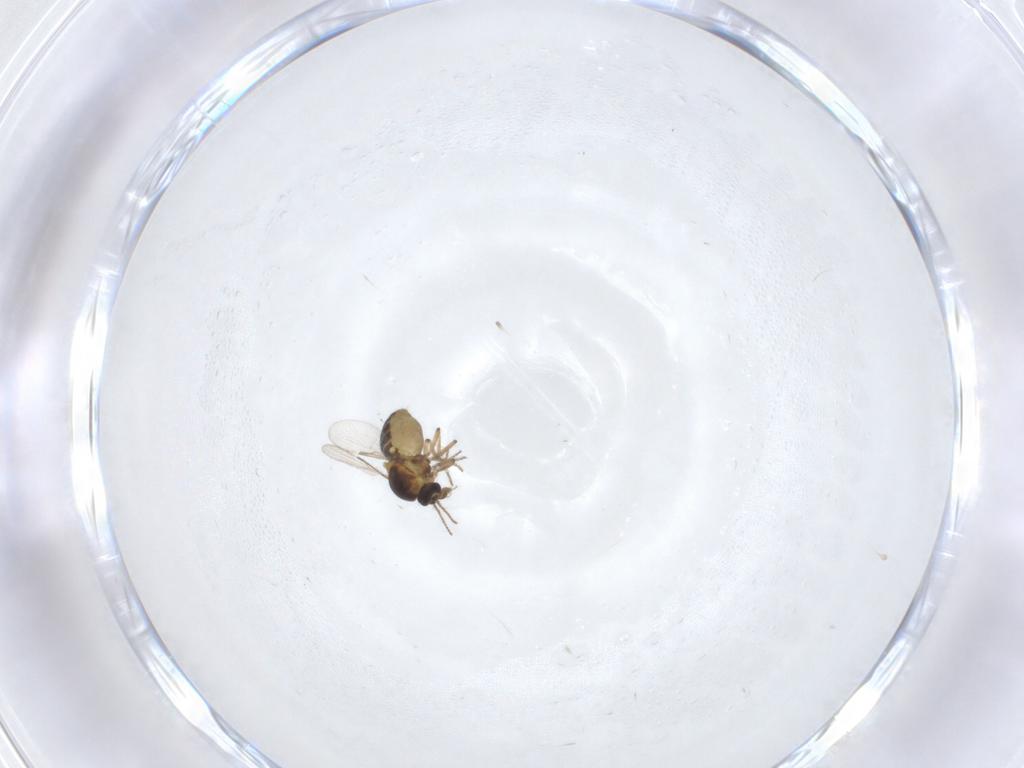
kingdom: Animalia
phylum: Arthropoda
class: Insecta
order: Diptera
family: Ceratopogonidae
